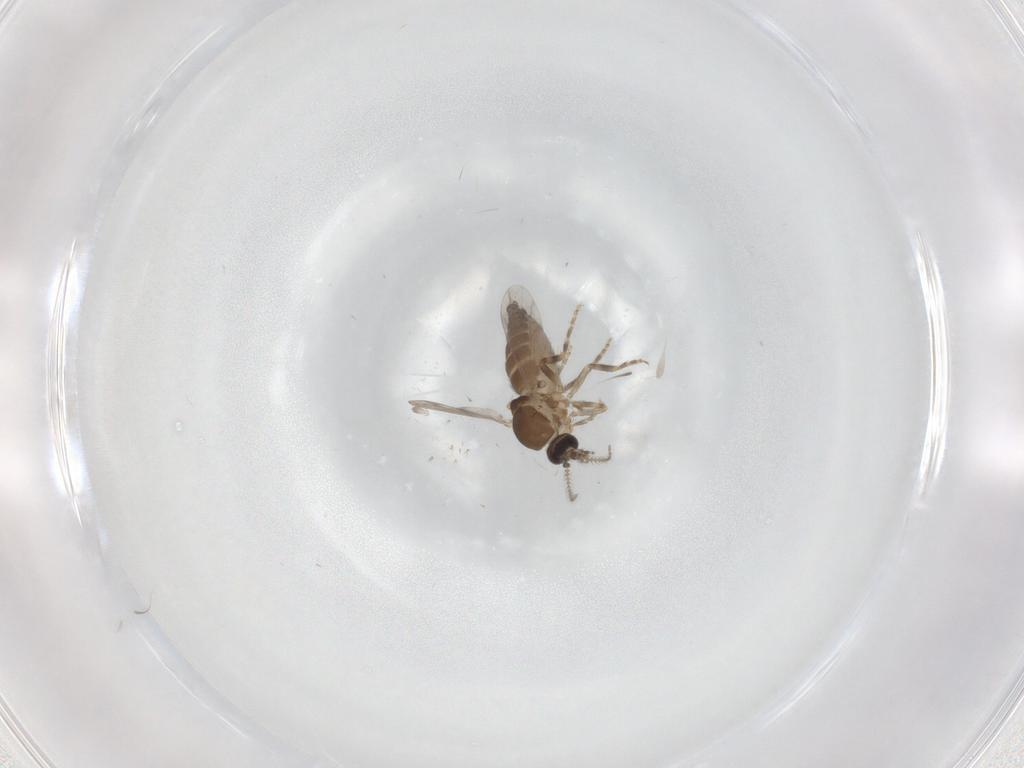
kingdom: Animalia
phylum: Arthropoda
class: Insecta
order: Diptera
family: Ceratopogonidae
